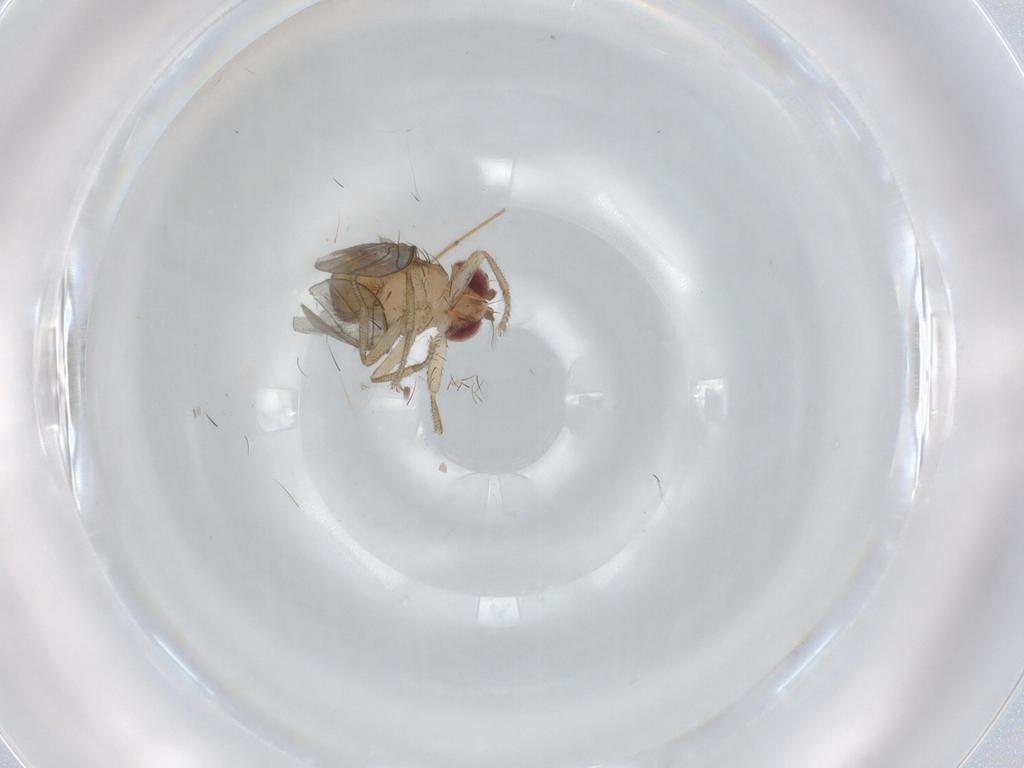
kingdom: Animalia
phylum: Arthropoda
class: Insecta
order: Diptera
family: Drosophilidae
